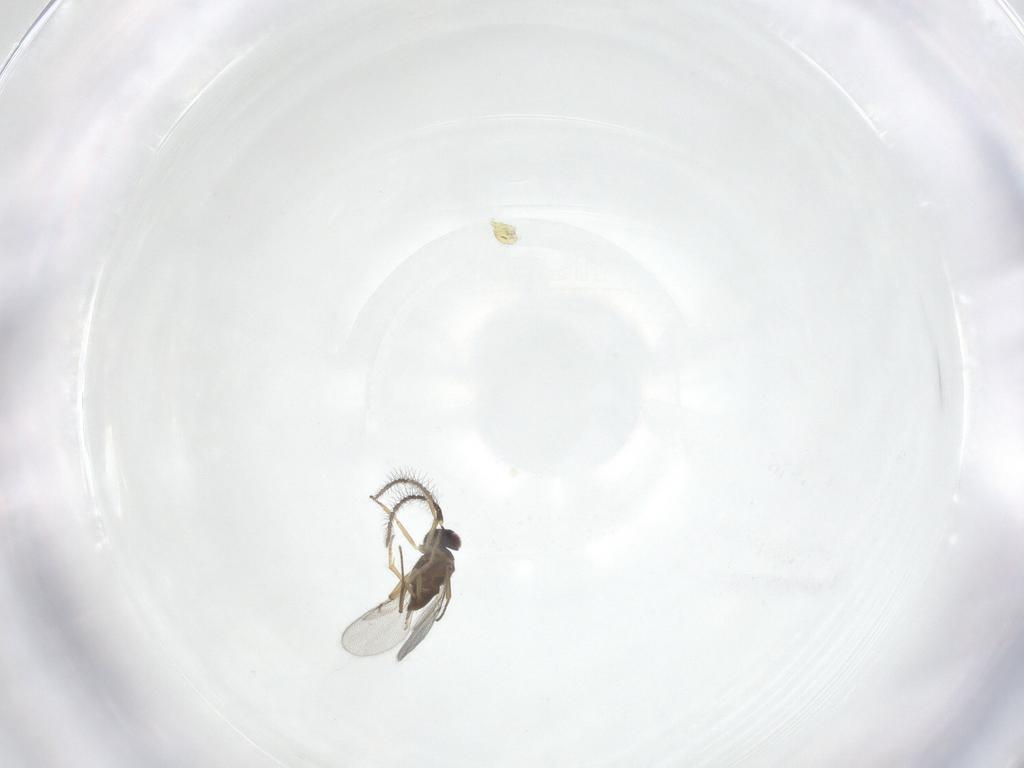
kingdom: Animalia
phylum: Arthropoda
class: Insecta
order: Hymenoptera
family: Encyrtidae
